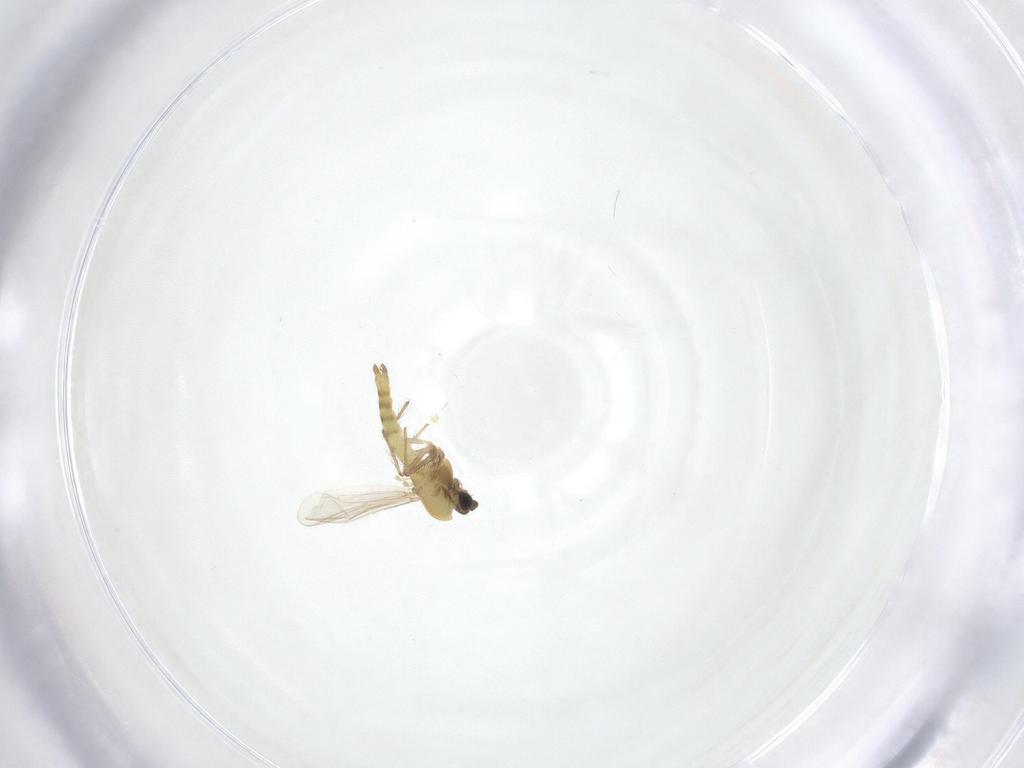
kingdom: Animalia
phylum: Arthropoda
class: Insecta
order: Diptera
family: Chironomidae
